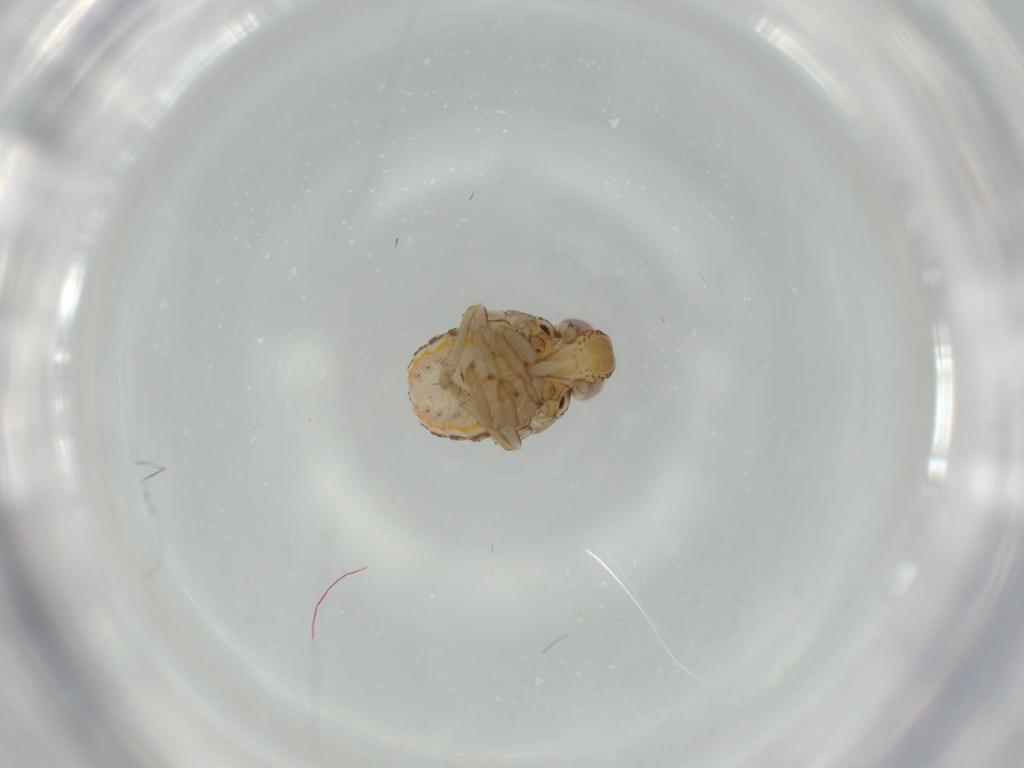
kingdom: Animalia
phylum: Arthropoda
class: Insecta
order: Hemiptera
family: Issidae
